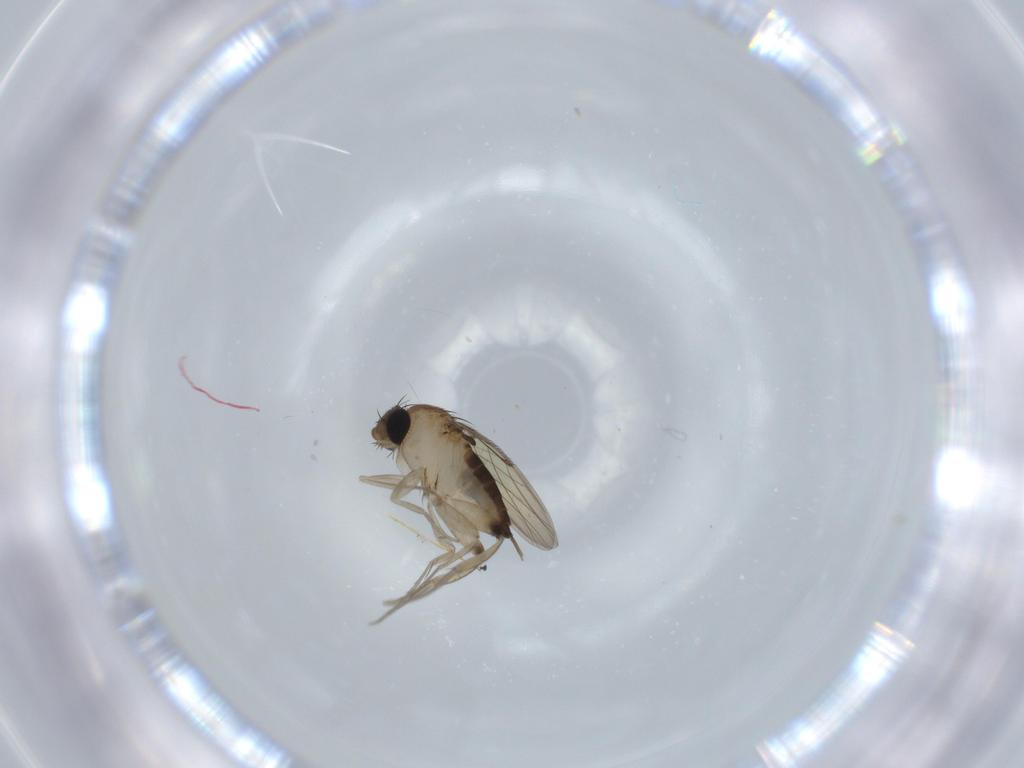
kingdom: Animalia
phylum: Arthropoda
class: Insecta
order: Diptera
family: Phoridae
